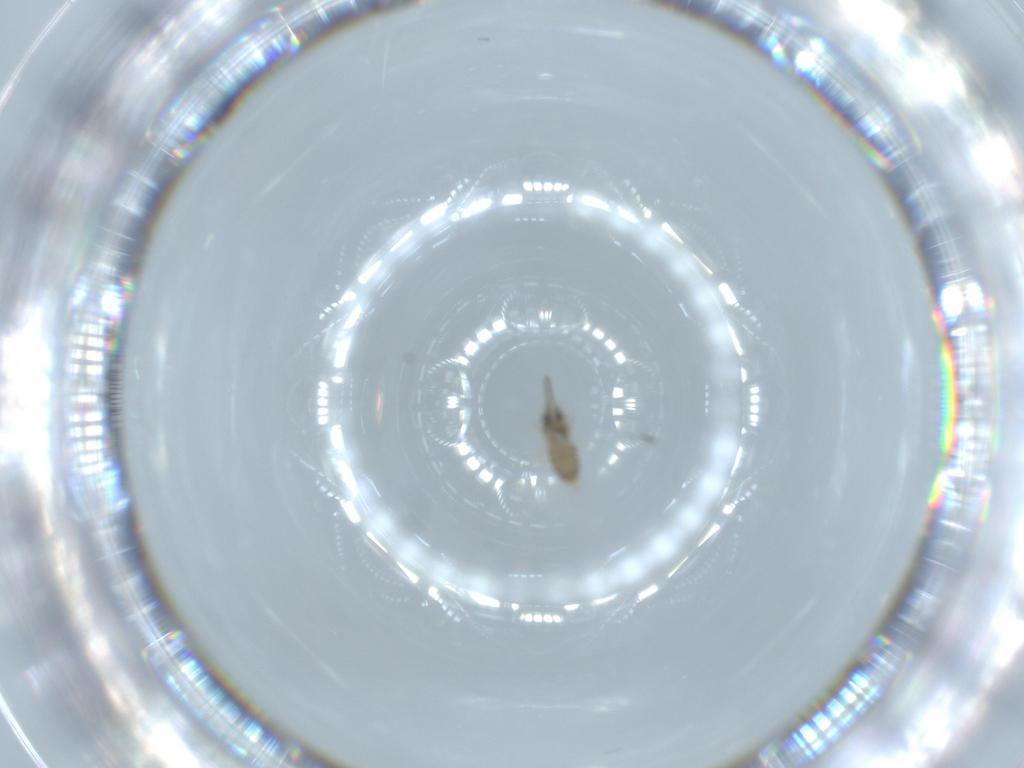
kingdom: Animalia
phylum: Arthropoda
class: Insecta
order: Diptera
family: Cecidomyiidae
